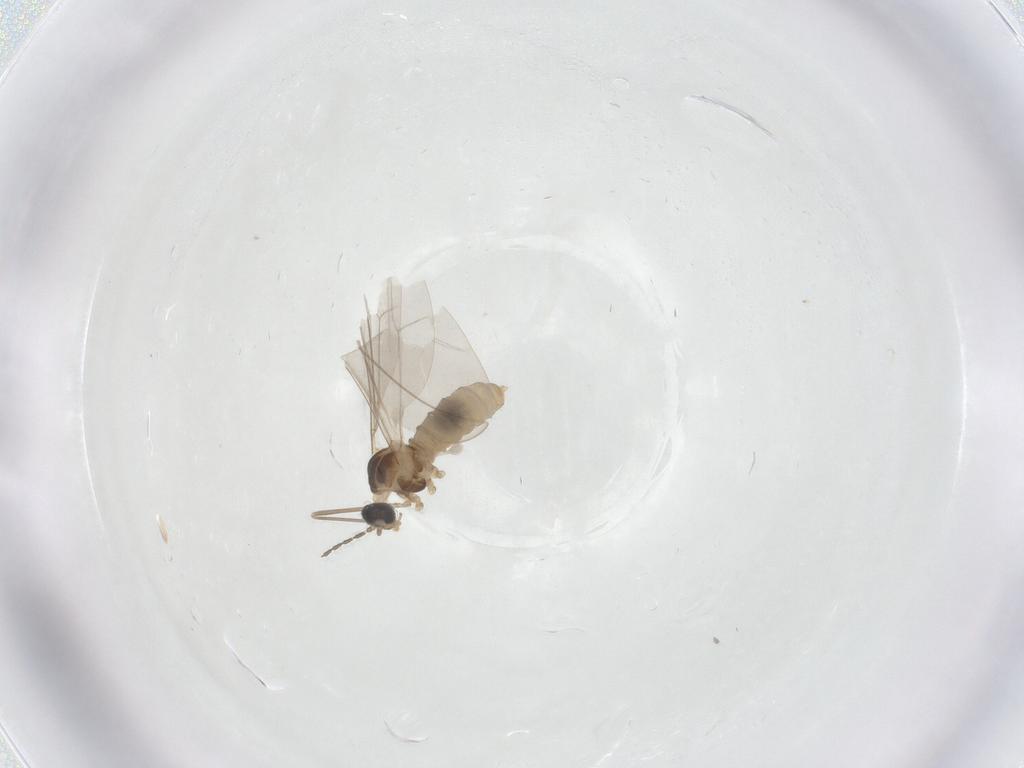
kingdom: Animalia
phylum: Arthropoda
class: Insecta
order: Diptera
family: Cecidomyiidae
